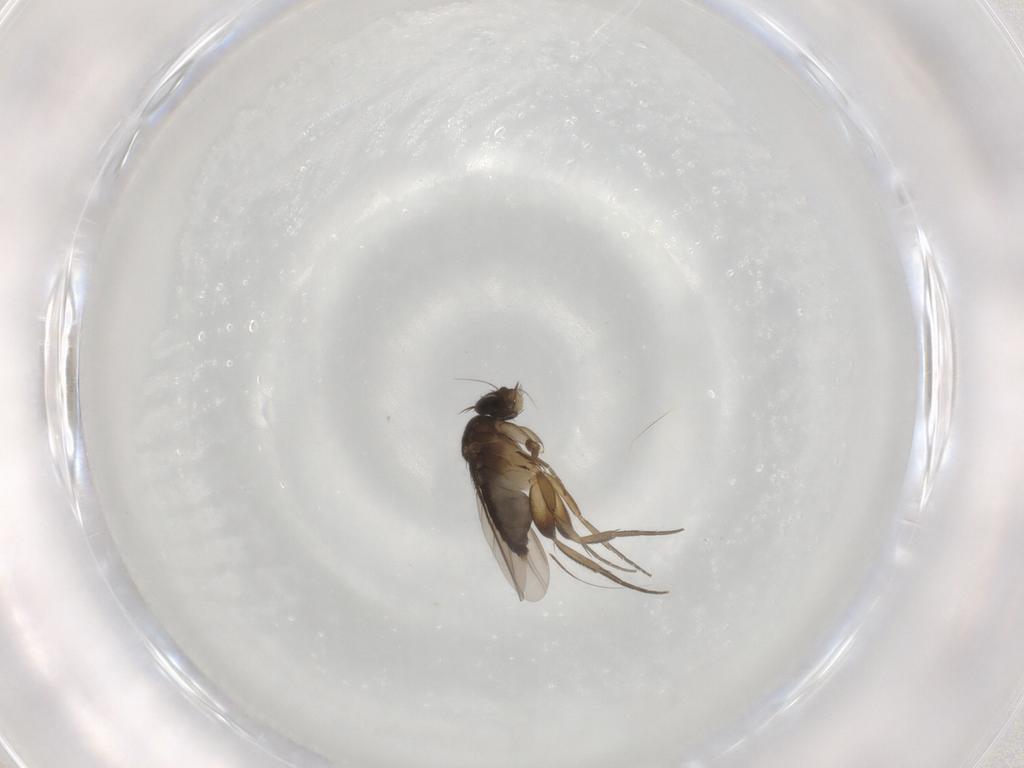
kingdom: Animalia
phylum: Arthropoda
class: Insecta
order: Diptera
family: Phoridae
